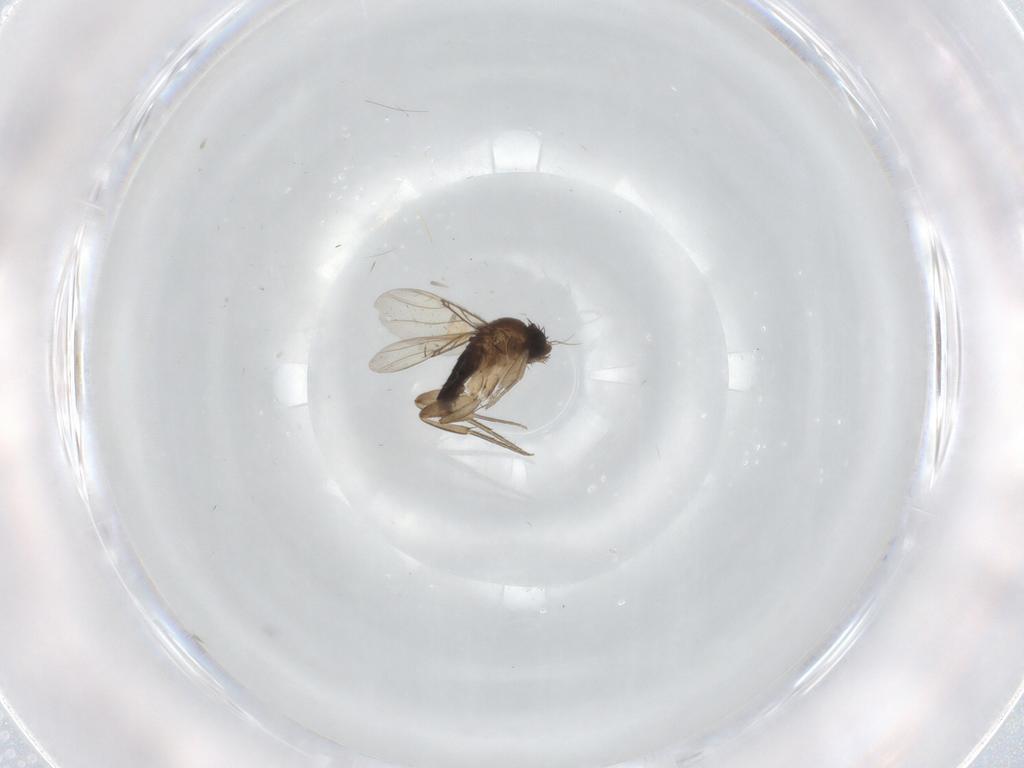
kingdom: Animalia
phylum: Arthropoda
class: Insecta
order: Diptera
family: Phoridae
